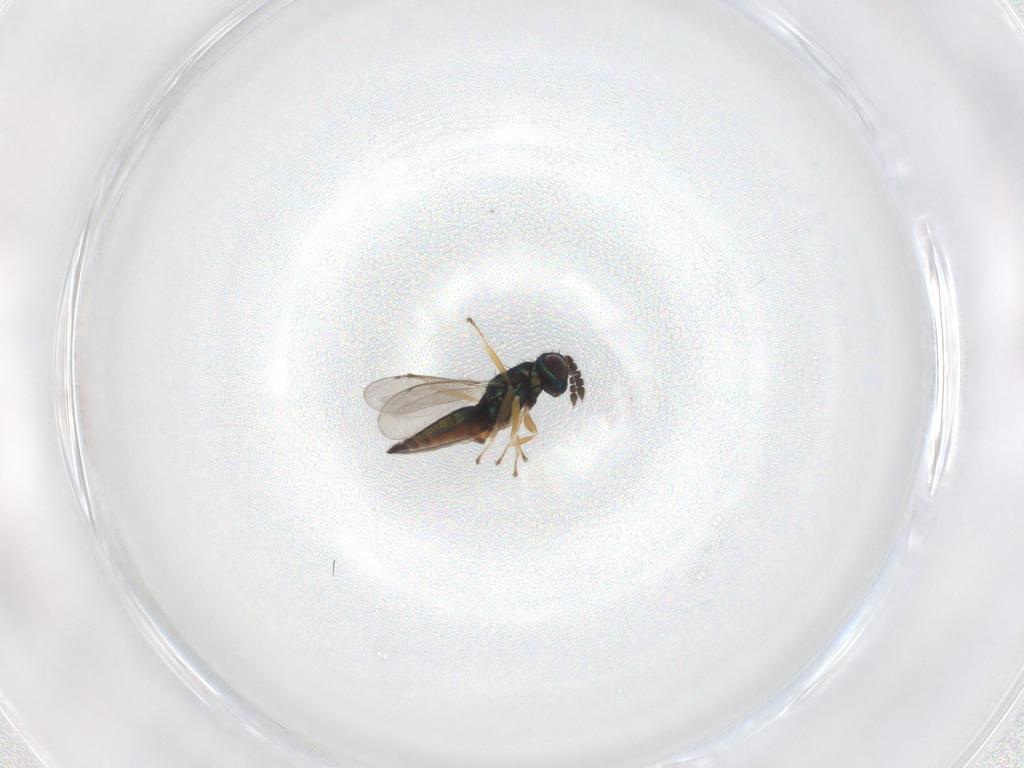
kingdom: Animalia
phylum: Arthropoda
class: Insecta
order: Hymenoptera
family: Eulophidae
